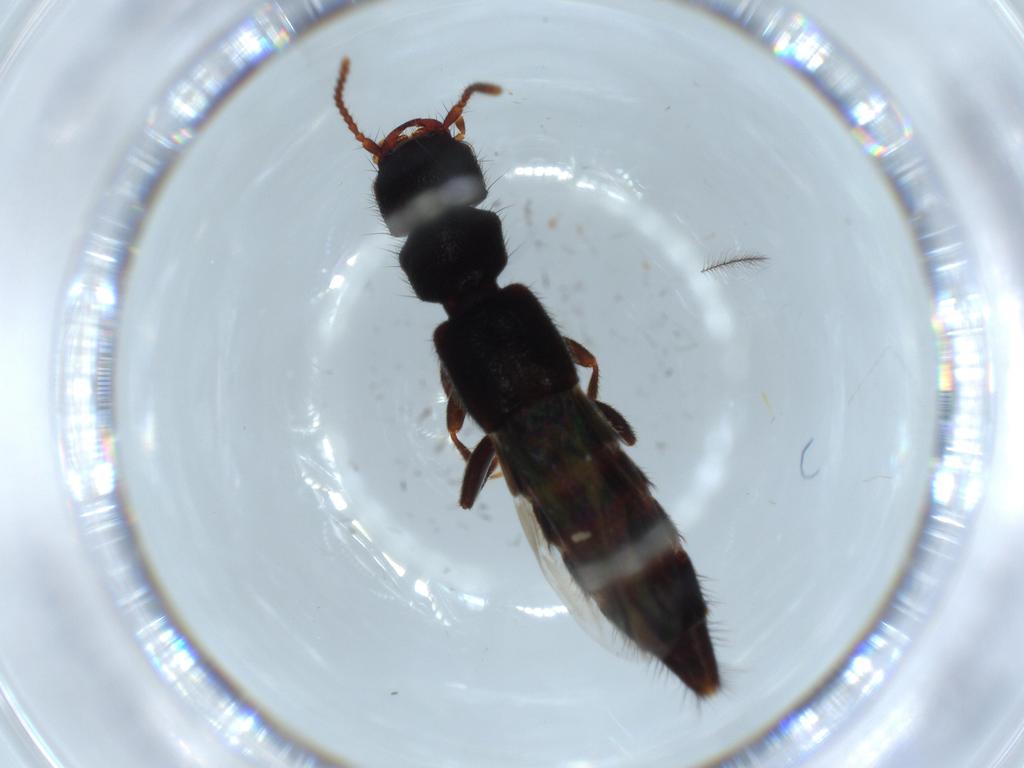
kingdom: Animalia
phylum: Arthropoda
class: Insecta
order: Coleoptera
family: Staphylinidae
